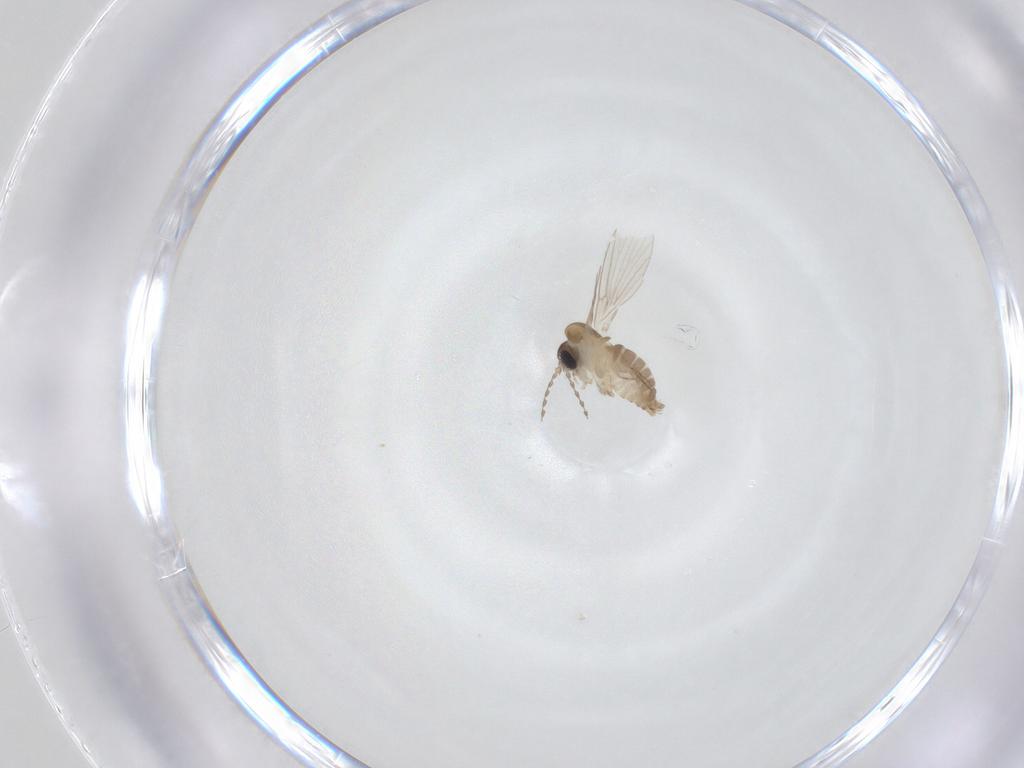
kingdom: Animalia
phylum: Arthropoda
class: Insecta
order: Diptera
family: Psychodidae
